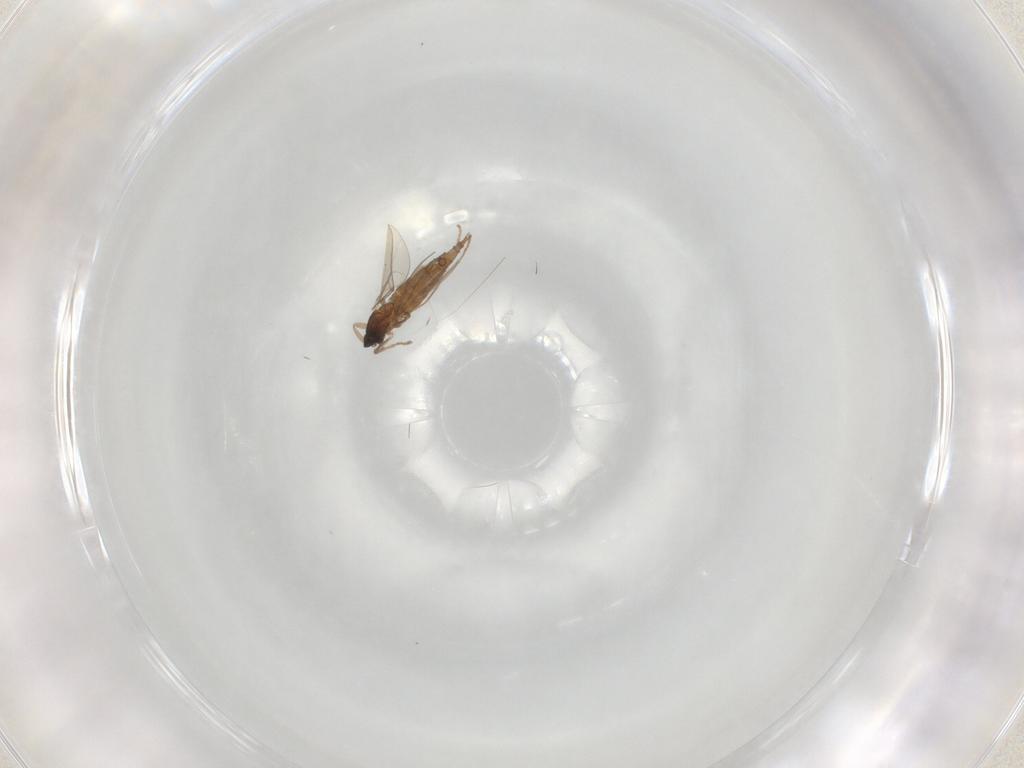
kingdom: Animalia
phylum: Arthropoda
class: Insecta
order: Diptera
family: Cecidomyiidae
